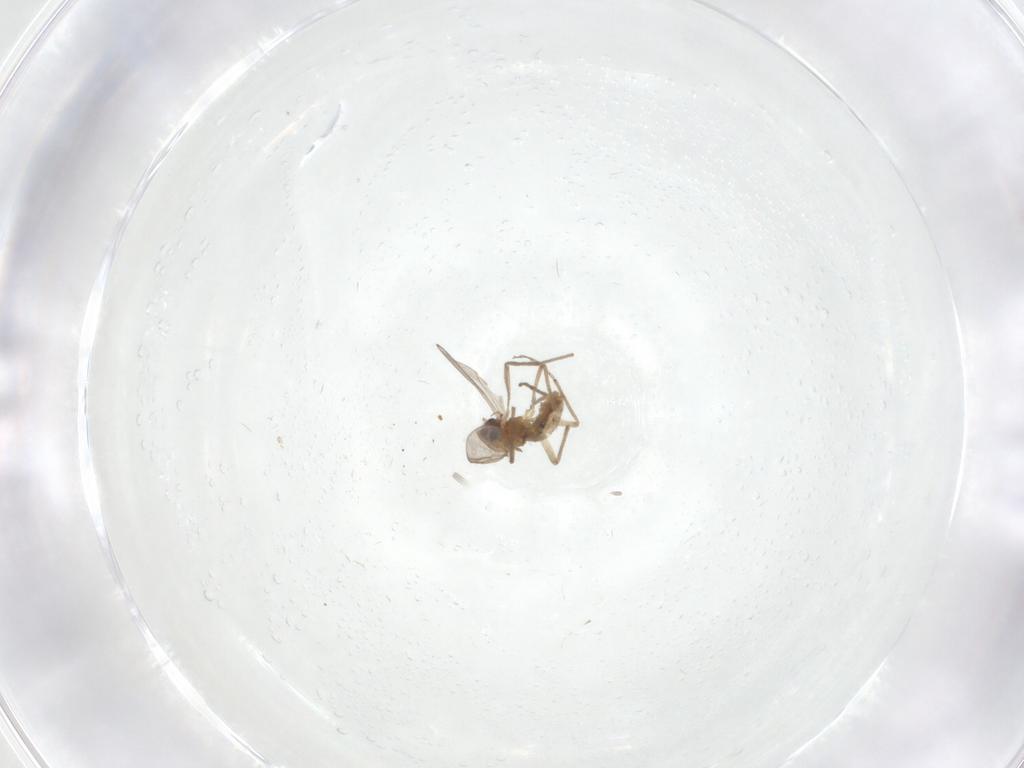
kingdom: Animalia
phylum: Arthropoda
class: Insecta
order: Diptera
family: Chironomidae
